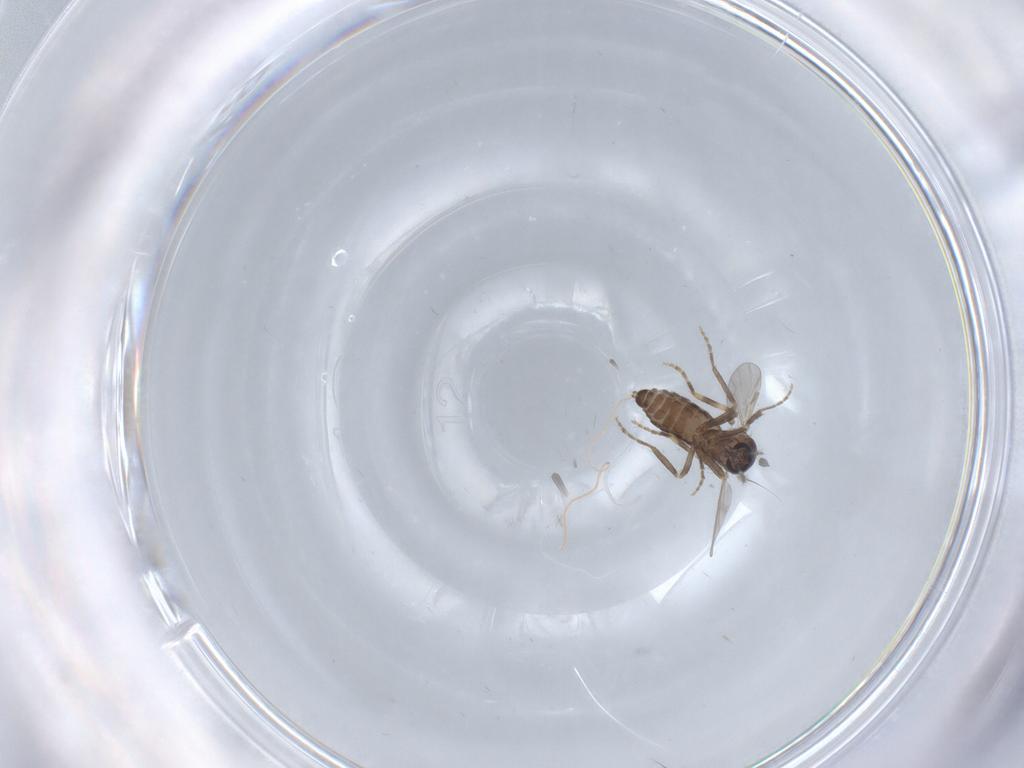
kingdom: Animalia
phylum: Arthropoda
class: Insecta
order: Diptera
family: Ceratopogonidae
